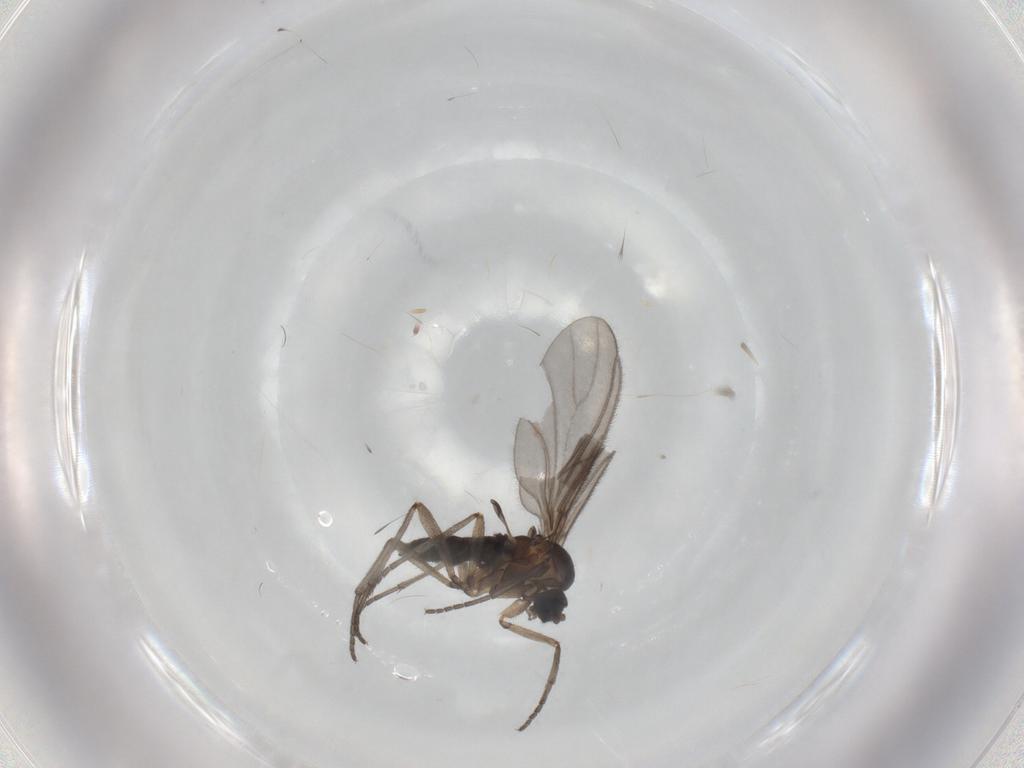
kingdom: Animalia
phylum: Arthropoda
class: Insecta
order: Diptera
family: Sciaridae
